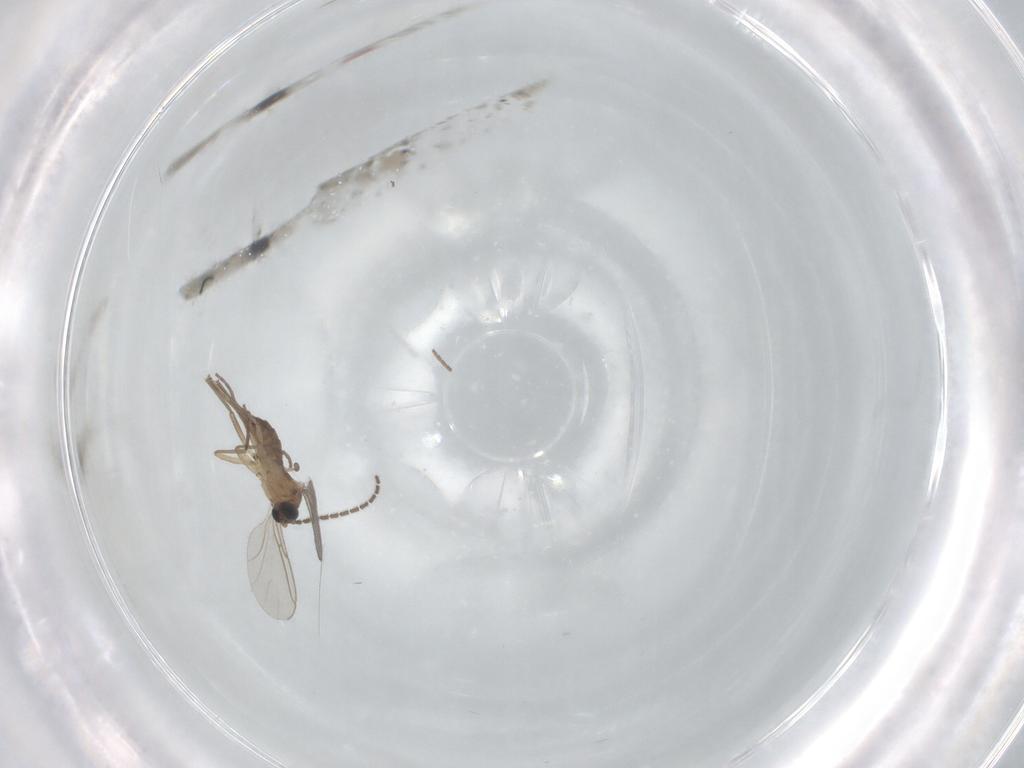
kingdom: Animalia
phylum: Arthropoda
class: Insecta
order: Diptera
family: Sciaridae
